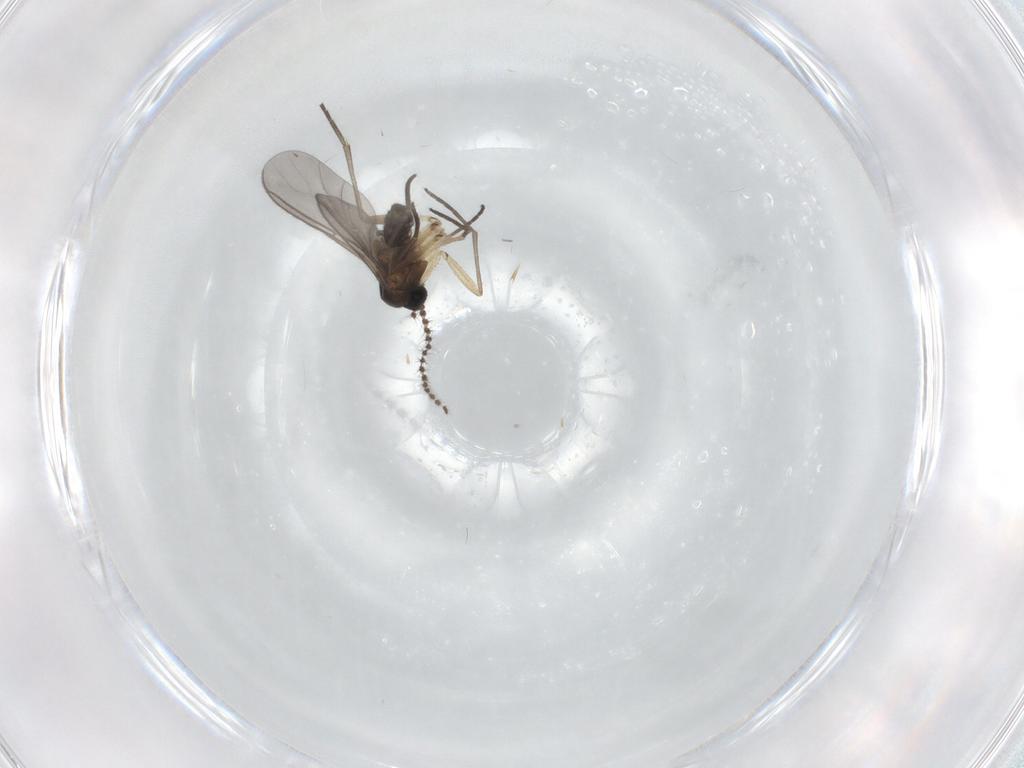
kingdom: Animalia
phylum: Arthropoda
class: Insecta
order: Diptera
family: Sciaridae
